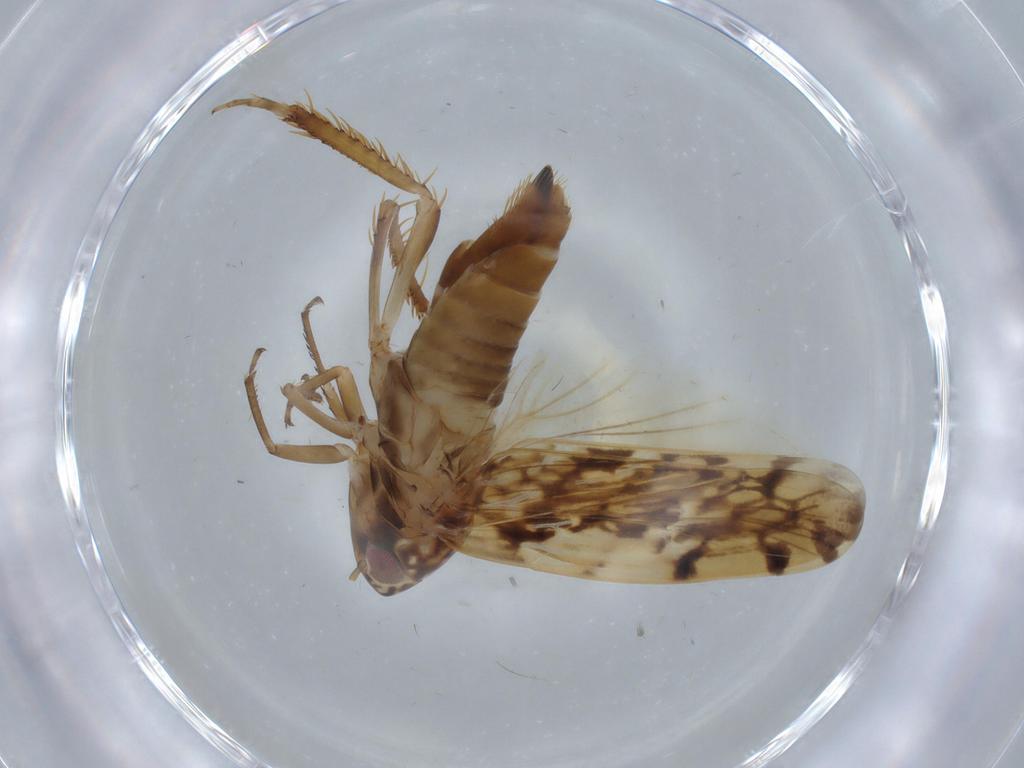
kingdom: Animalia
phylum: Arthropoda
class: Insecta
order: Hemiptera
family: Cicadellidae
